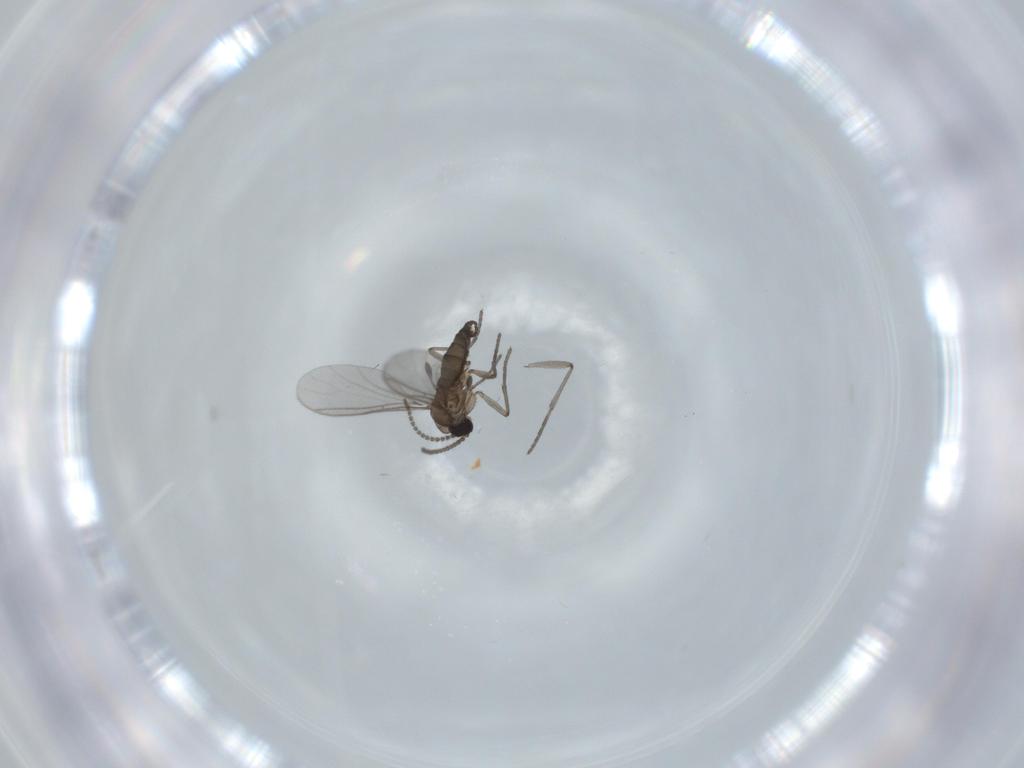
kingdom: Animalia
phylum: Arthropoda
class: Insecta
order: Diptera
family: Sciaridae
